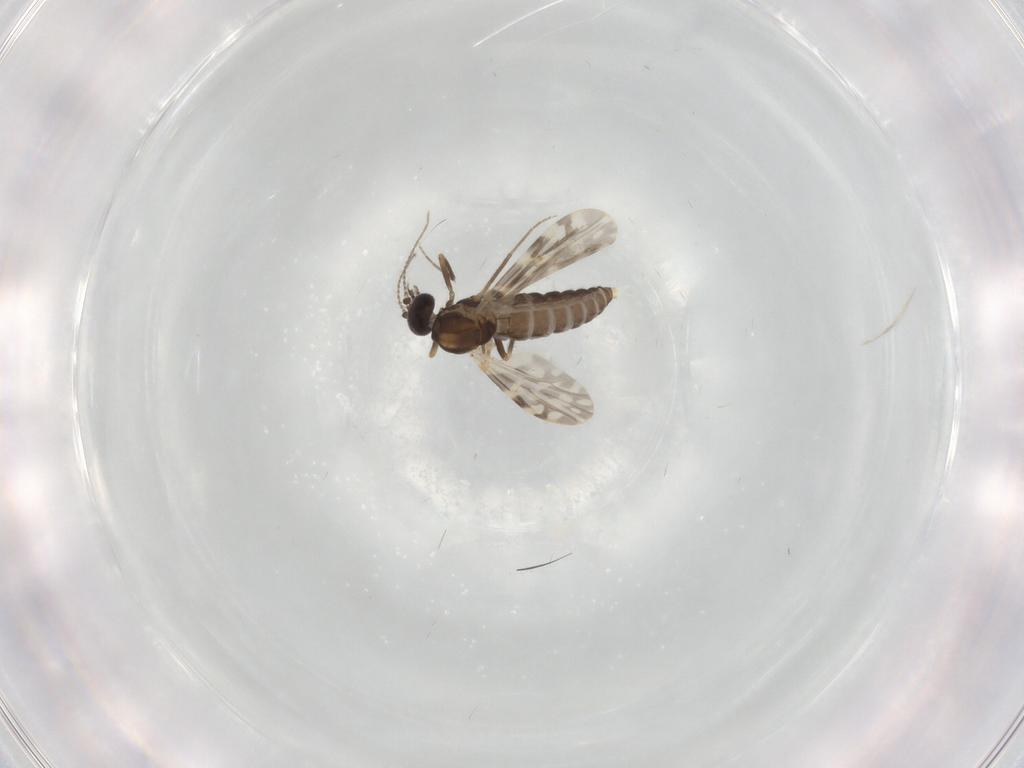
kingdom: Animalia
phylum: Arthropoda
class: Insecta
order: Diptera
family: Ceratopogonidae
